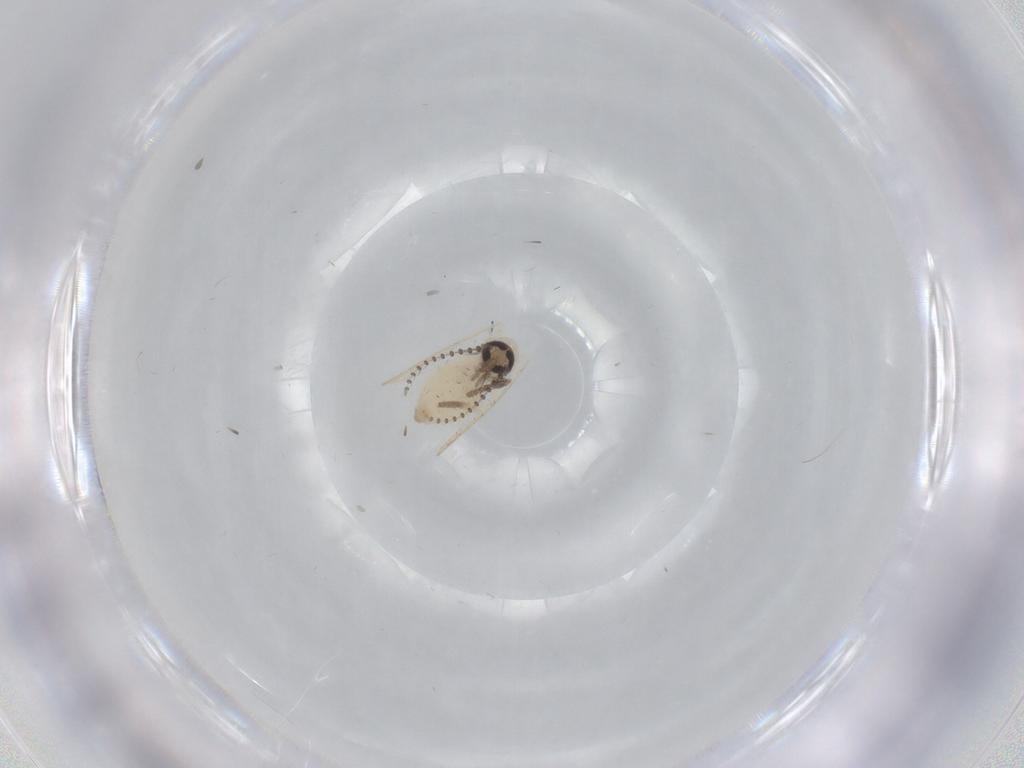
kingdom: Animalia
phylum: Arthropoda
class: Insecta
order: Diptera
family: Psychodidae
